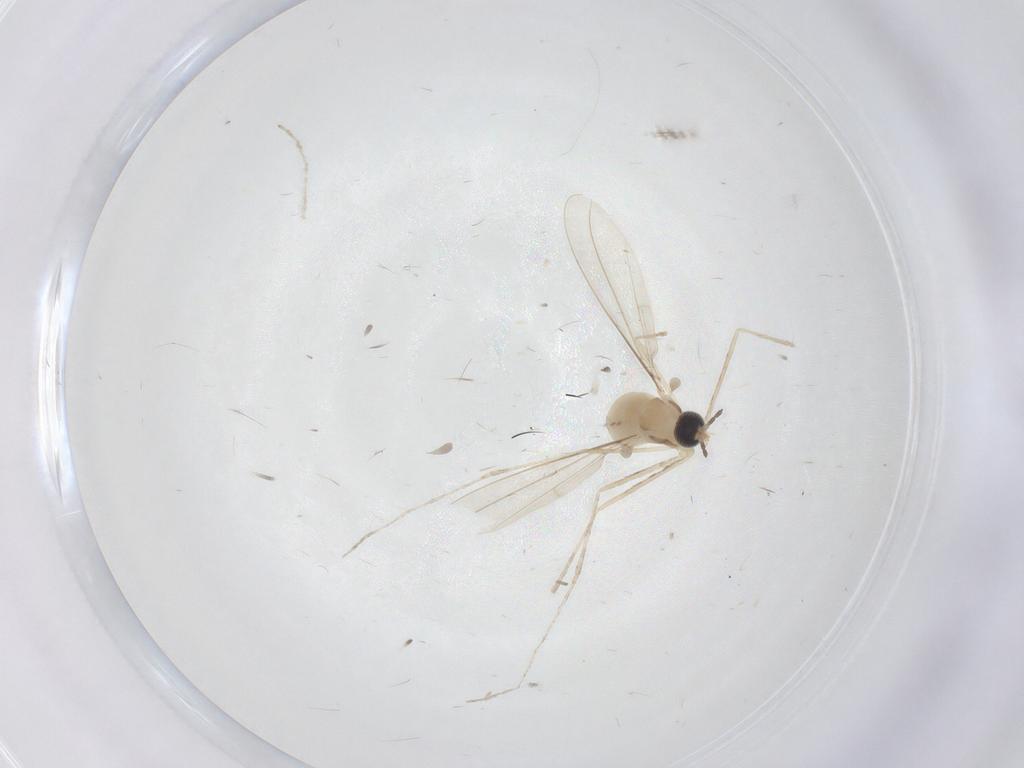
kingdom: Animalia
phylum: Arthropoda
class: Insecta
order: Diptera
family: Cecidomyiidae
